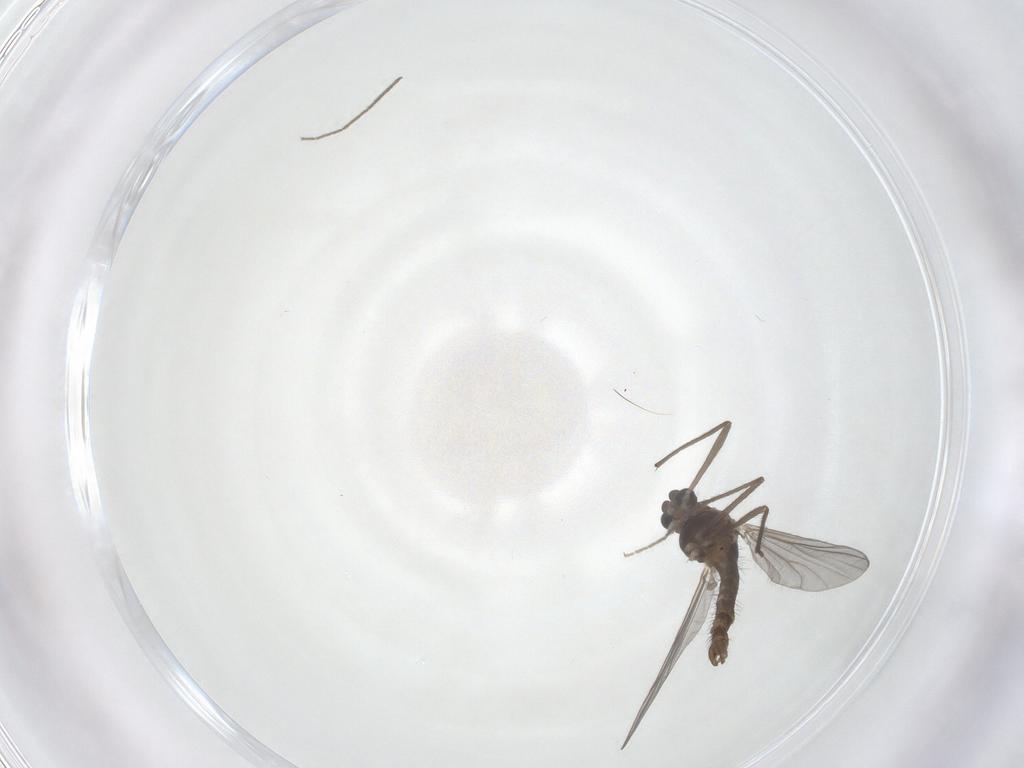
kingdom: Animalia
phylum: Arthropoda
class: Insecta
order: Diptera
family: Chironomidae
